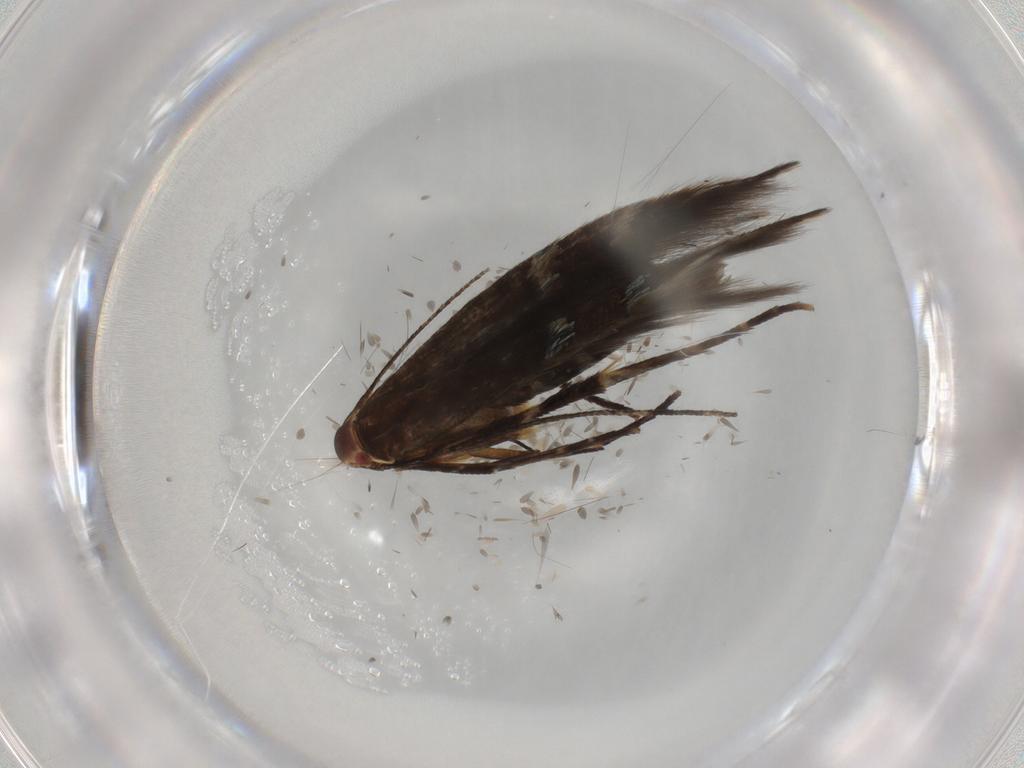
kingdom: Animalia
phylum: Arthropoda
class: Insecta
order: Lepidoptera
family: Cosmopterigidae
